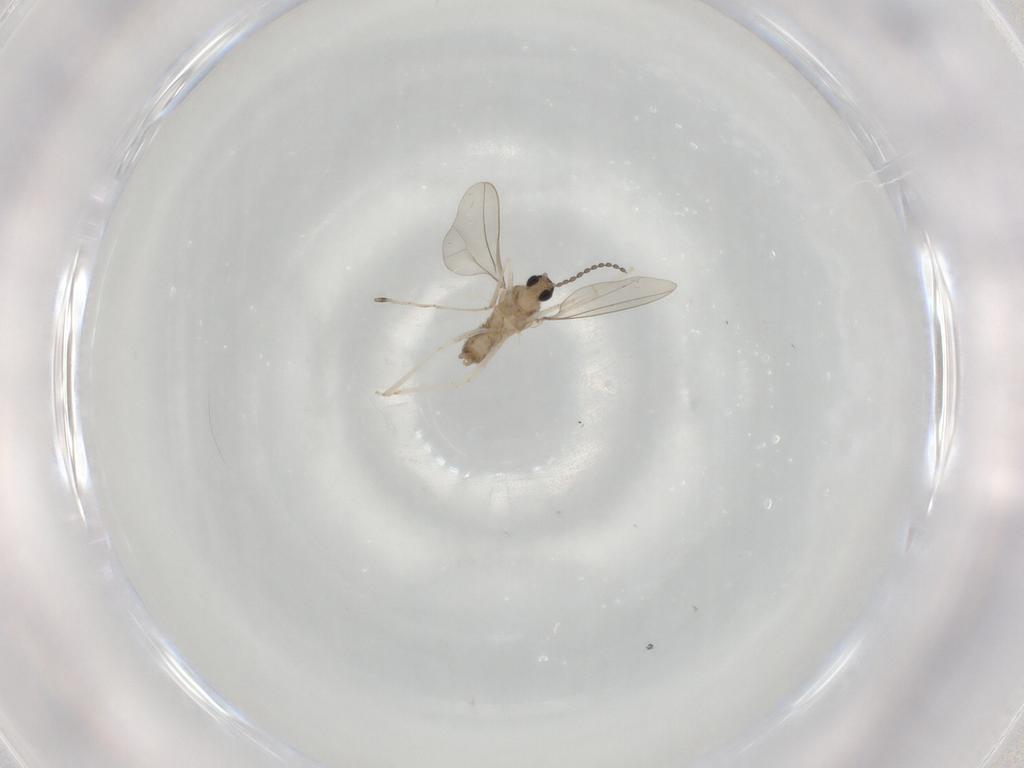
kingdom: Animalia
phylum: Arthropoda
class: Insecta
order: Diptera
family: Cecidomyiidae
